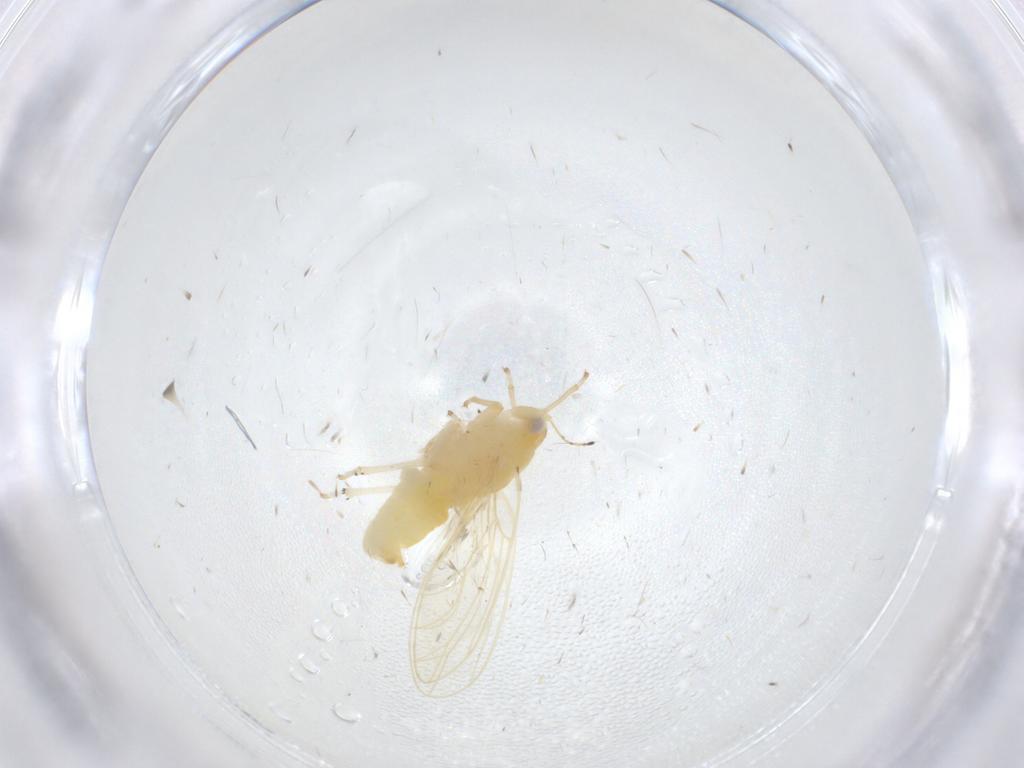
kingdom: Animalia
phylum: Arthropoda
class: Insecta
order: Hemiptera
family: Cercopidae
